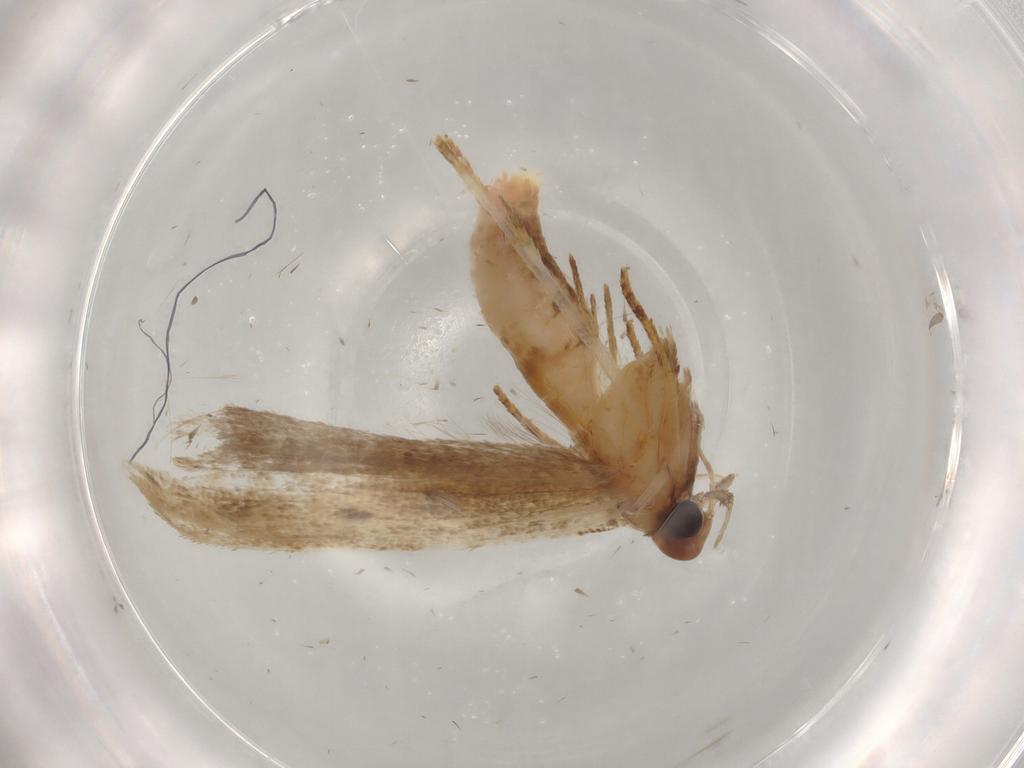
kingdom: Animalia
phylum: Arthropoda
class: Insecta
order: Lepidoptera
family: Gelechiidae
